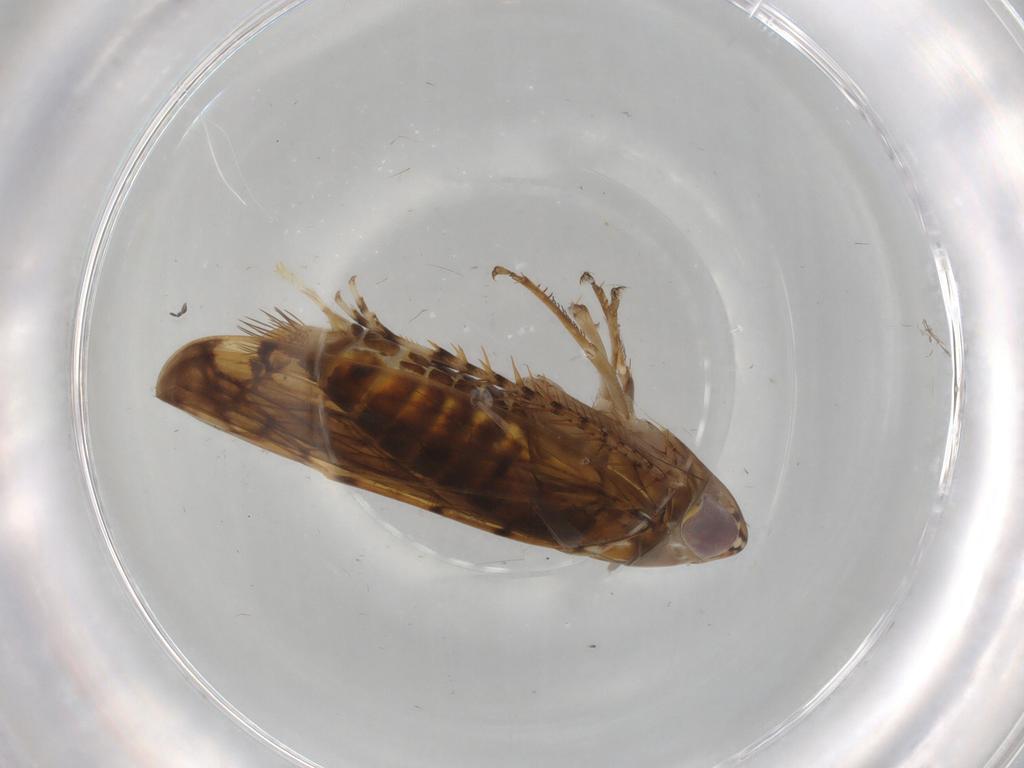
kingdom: Animalia
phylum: Arthropoda
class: Insecta
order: Hemiptera
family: Cicadellidae
